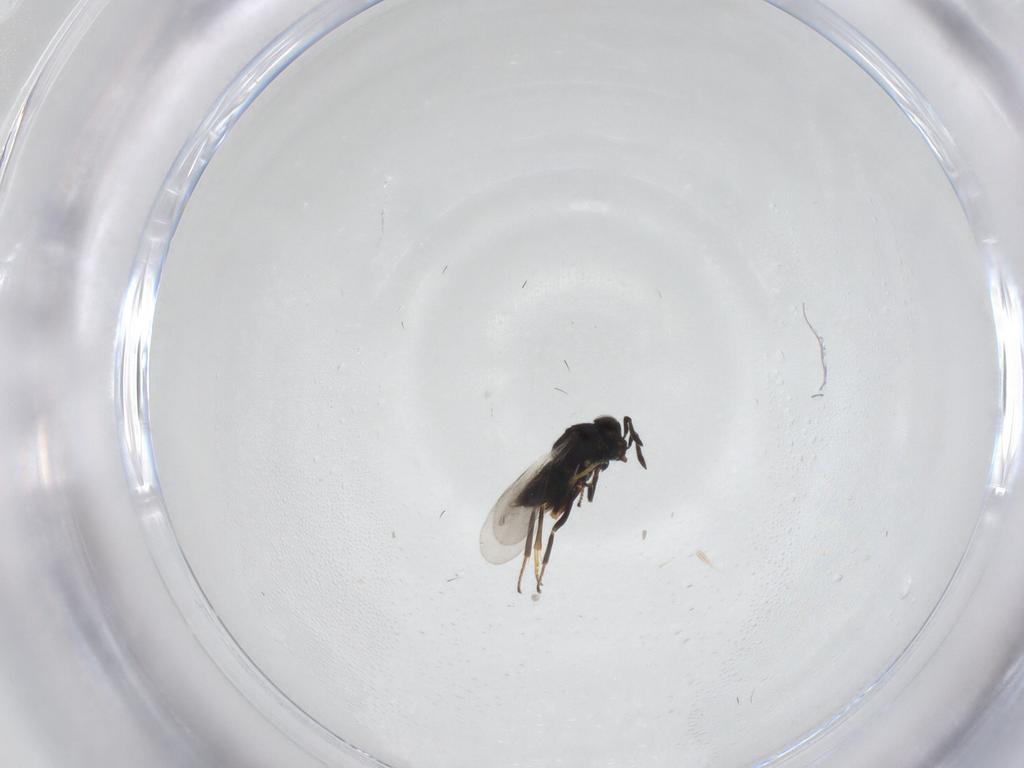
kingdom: Animalia
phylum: Arthropoda
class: Insecta
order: Hymenoptera
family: Encyrtidae
